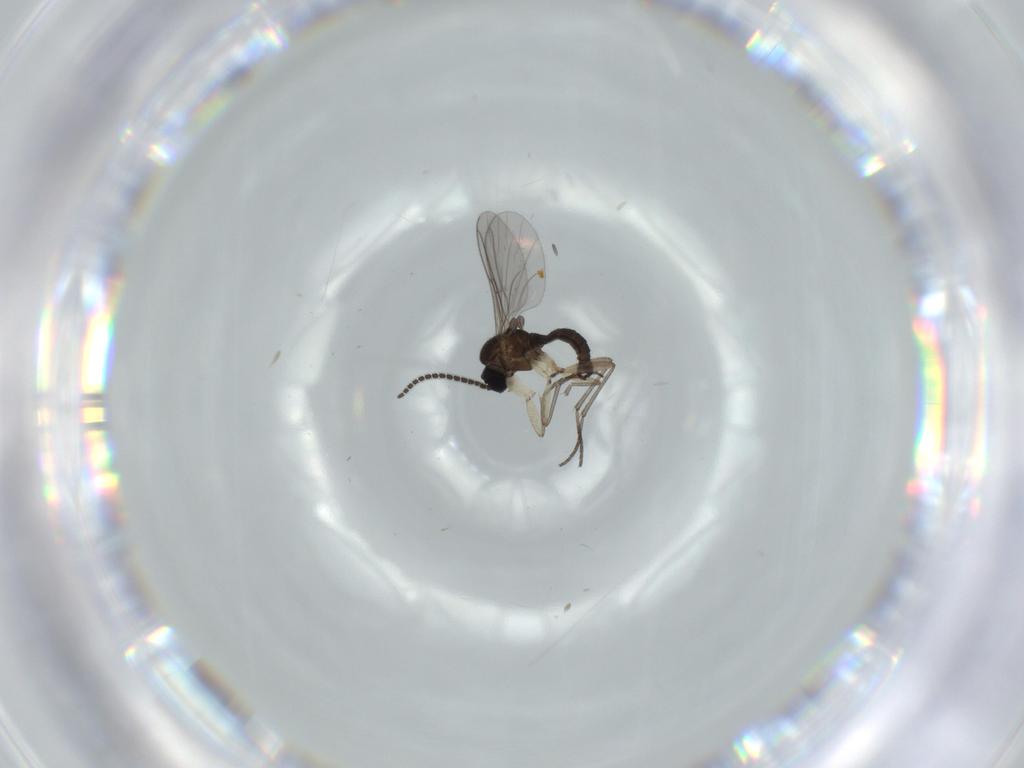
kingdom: Animalia
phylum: Arthropoda
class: Insecta
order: Diptera
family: Sciaridae
